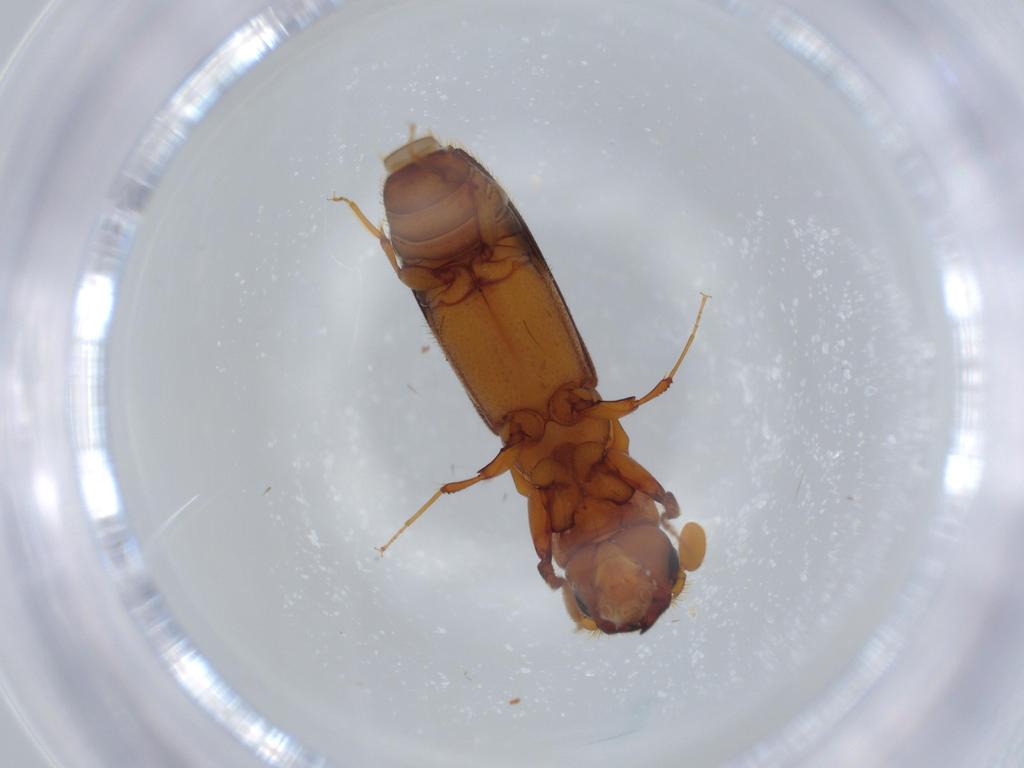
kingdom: Animalia
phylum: Arthropoda
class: Insecta
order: Coleoptera
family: Curculionidae
